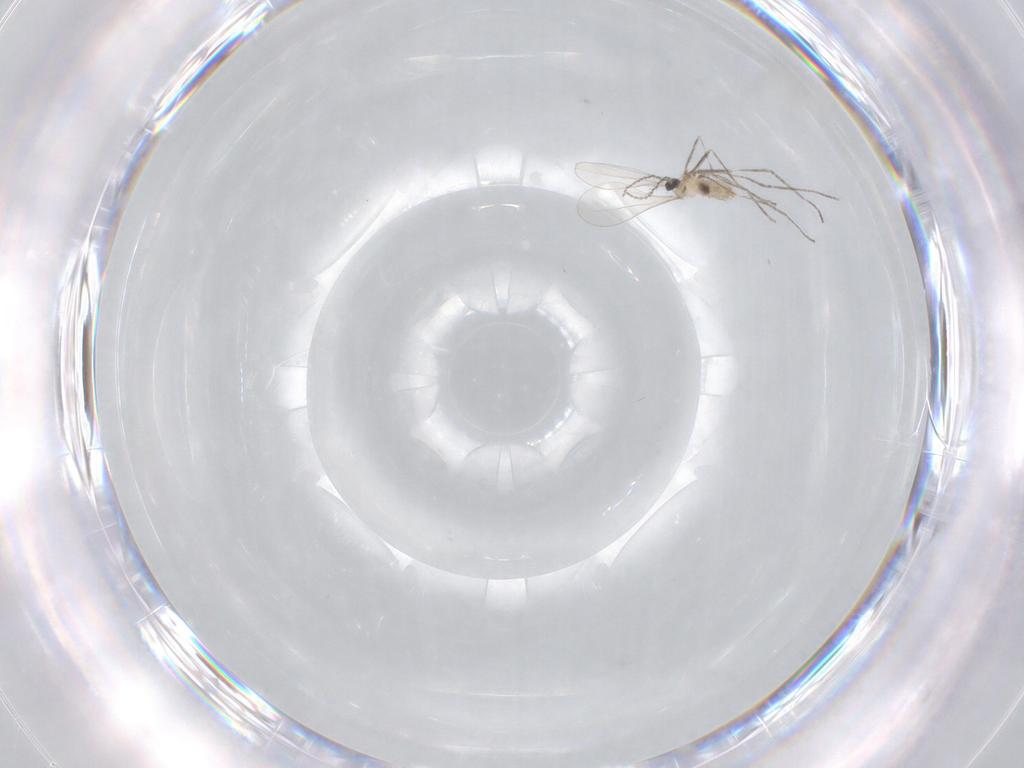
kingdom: Animalia
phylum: Arthropoda
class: Insecta
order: Diptera
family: Cecidomyiidae
